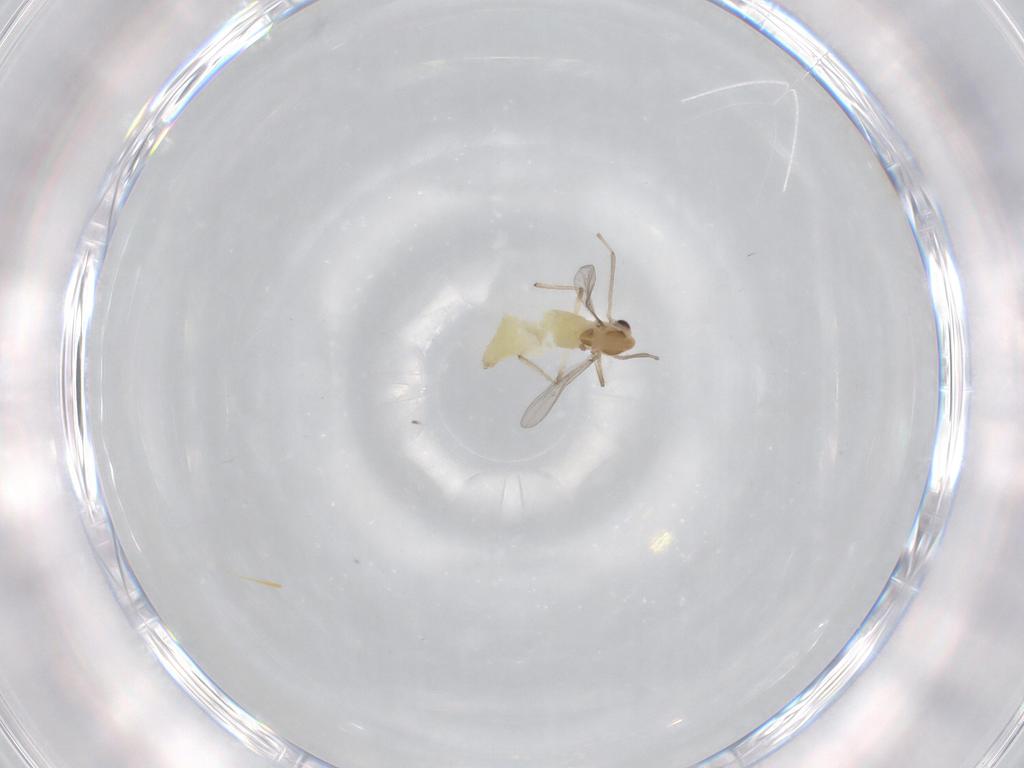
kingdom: Animalia
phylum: Arthropoda
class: Insecta
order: Diptera
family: Chironomidae
